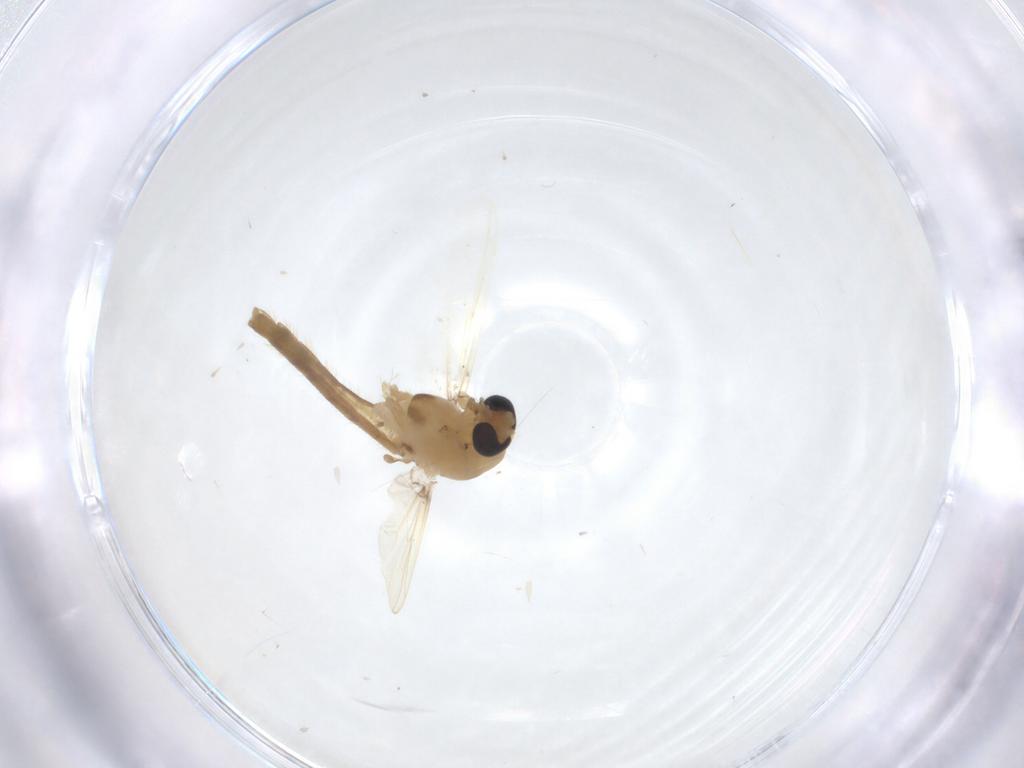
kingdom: Animalia
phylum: Arthropoda
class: Insecta
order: Diptera
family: Chironomidae
